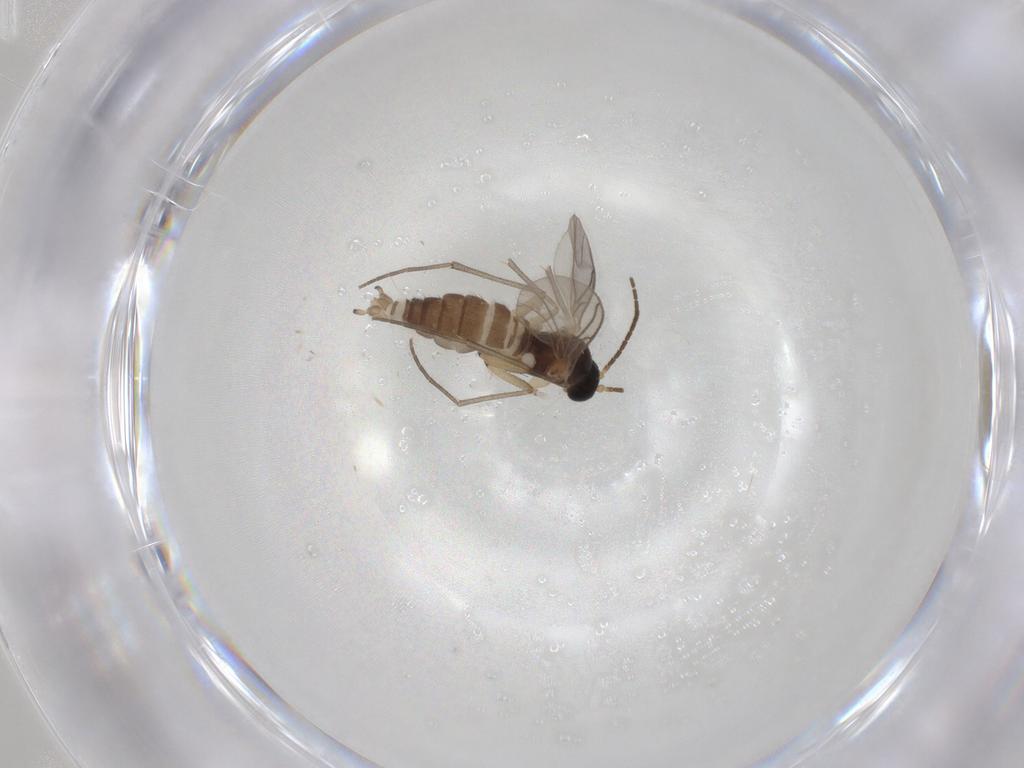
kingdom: Animalia
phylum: Arthropoda
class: Insecta
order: Diptera
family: Sciaridae
